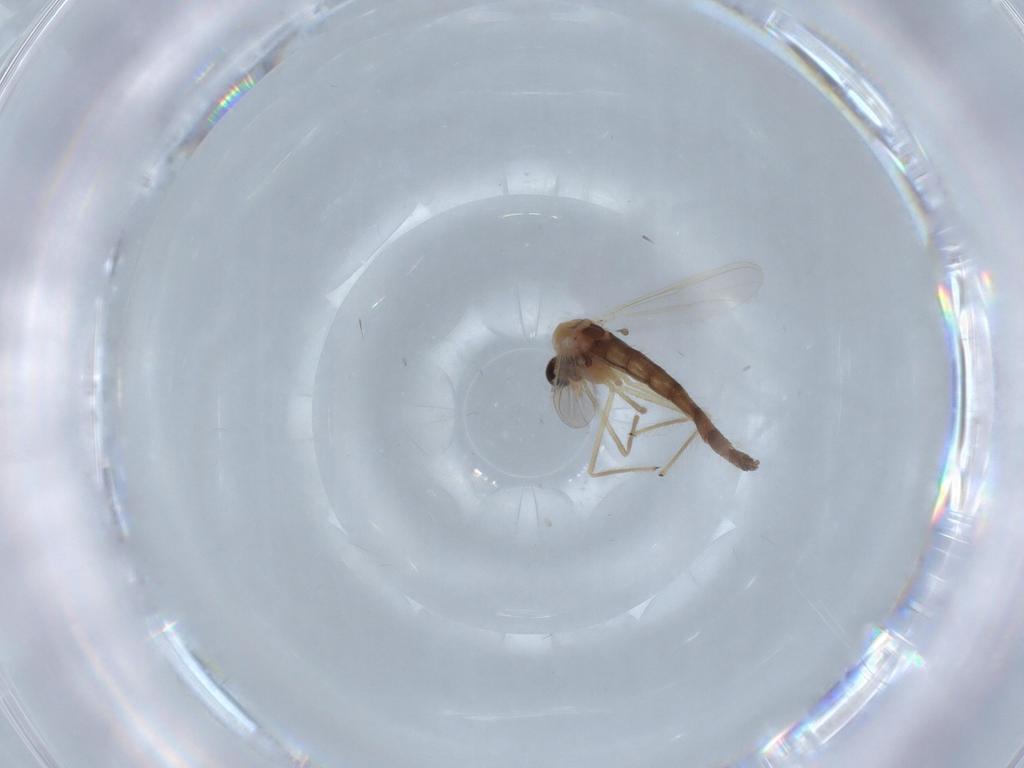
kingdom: Animalia
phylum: Arthropoda
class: Insecta
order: Diptera
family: Chironomidae
